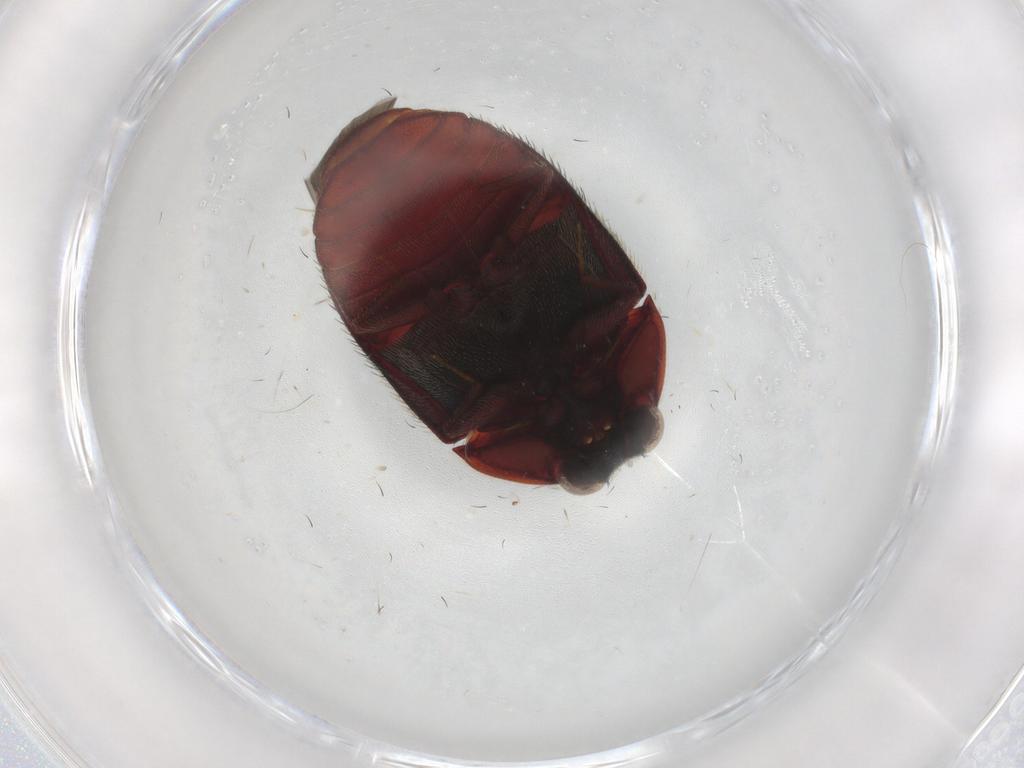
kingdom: Animalia
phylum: Arthropoda
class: Insecta
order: Coleoptera
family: Dermestidae
